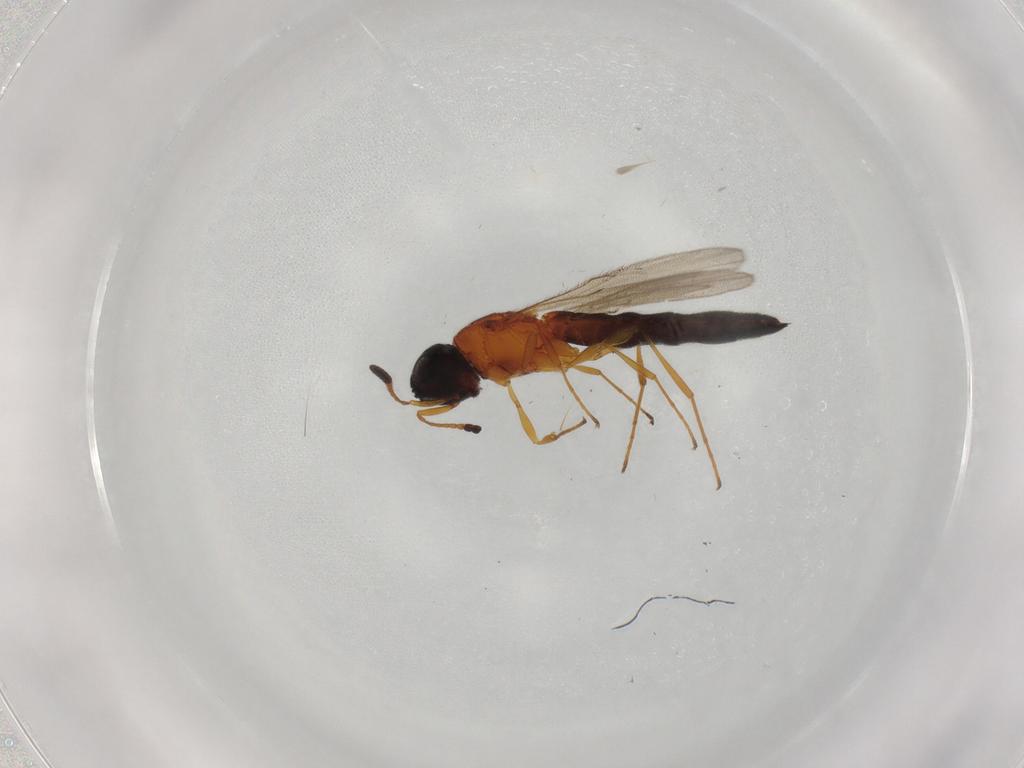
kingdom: Animalia
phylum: Arthropoda
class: Insecta
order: Hymenoptera
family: Scelionidae
